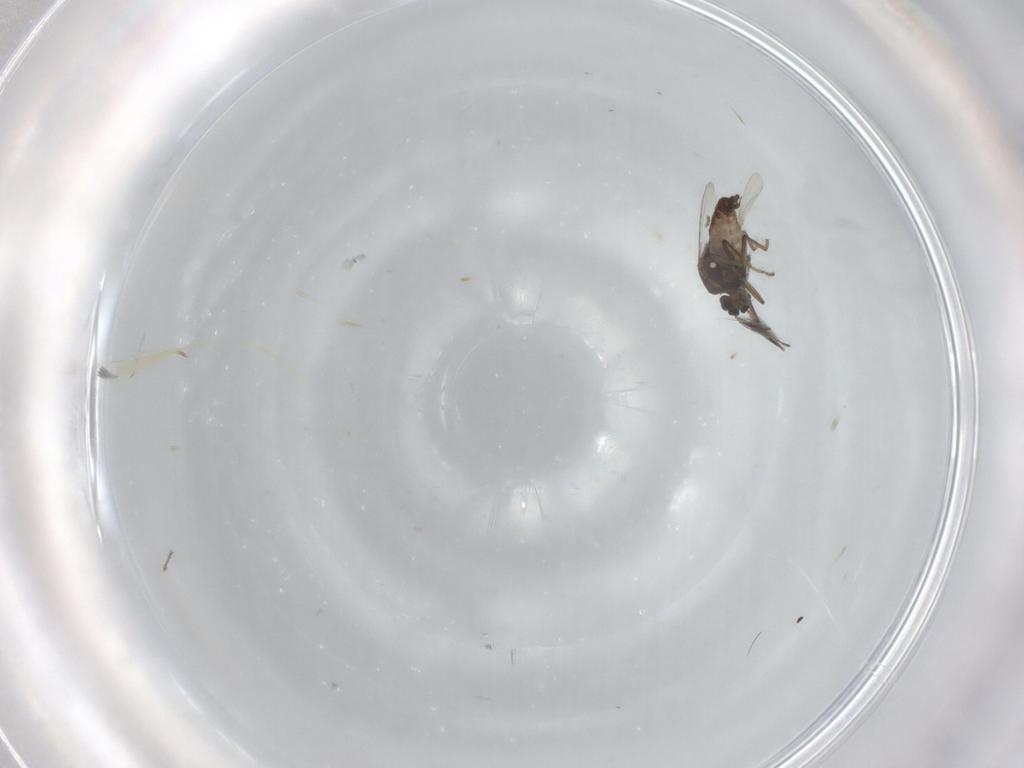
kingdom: Animalia
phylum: Arthropoda
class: Insecta
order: Diptera
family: Ceratopogonidae
